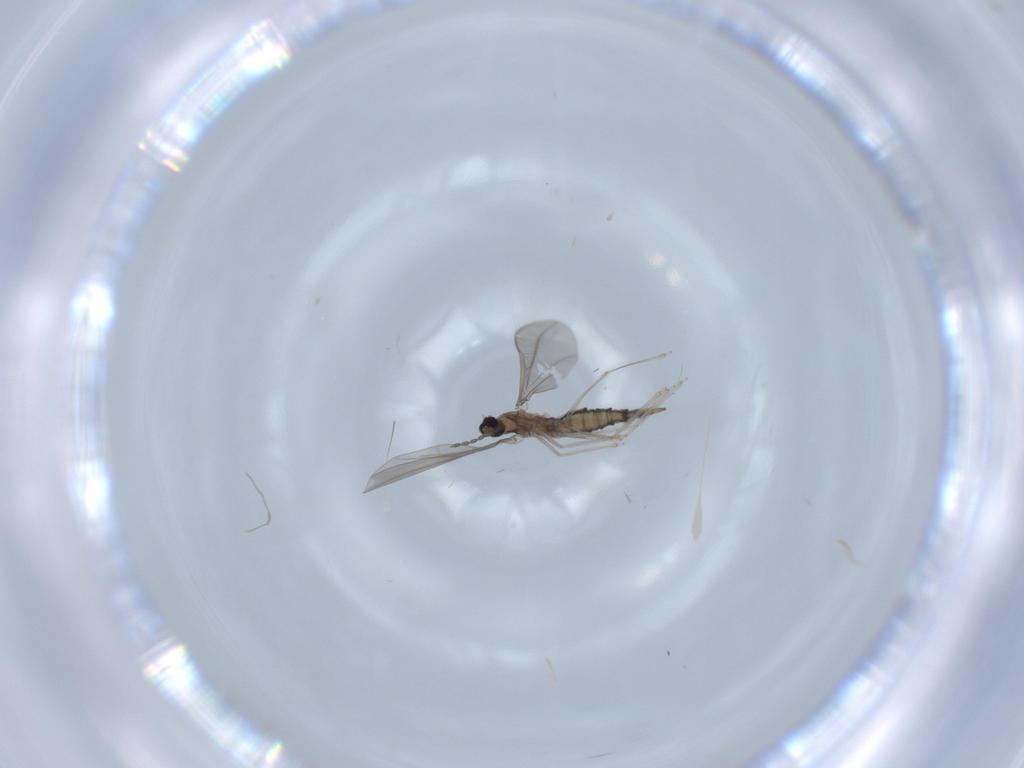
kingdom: Animalia
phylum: Arthropoda
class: Insecta
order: Diptera
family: Cecidomyiidae
